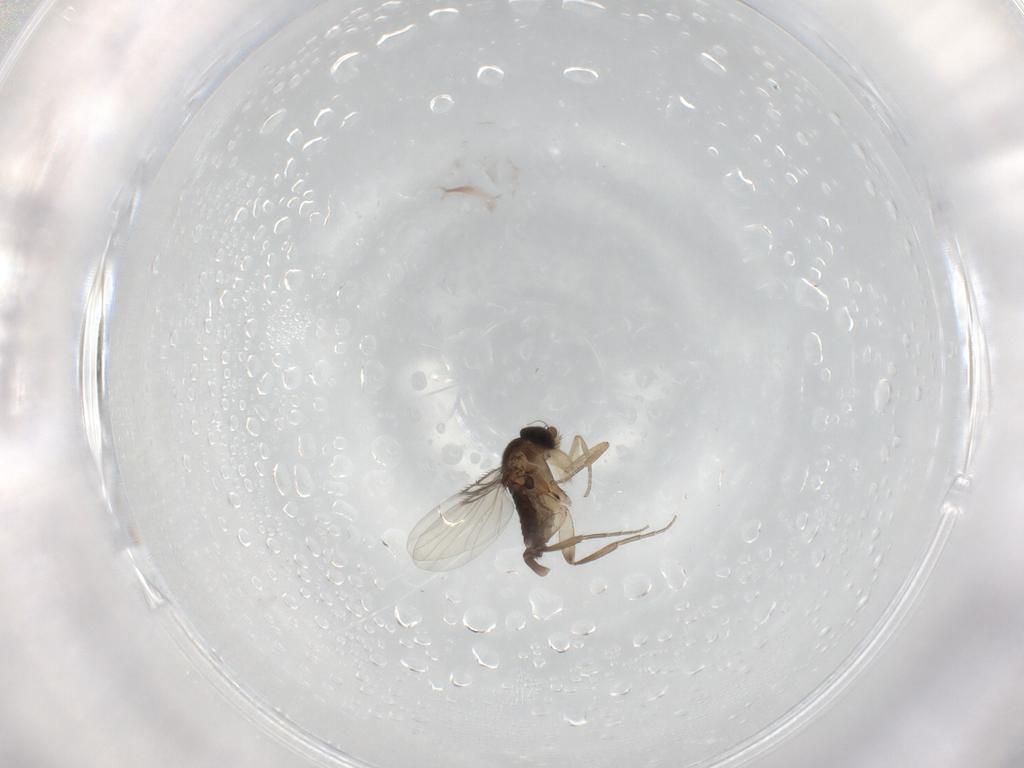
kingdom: Animalia
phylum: Arthropoda
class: Insecta
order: Diptera
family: Phoridae
